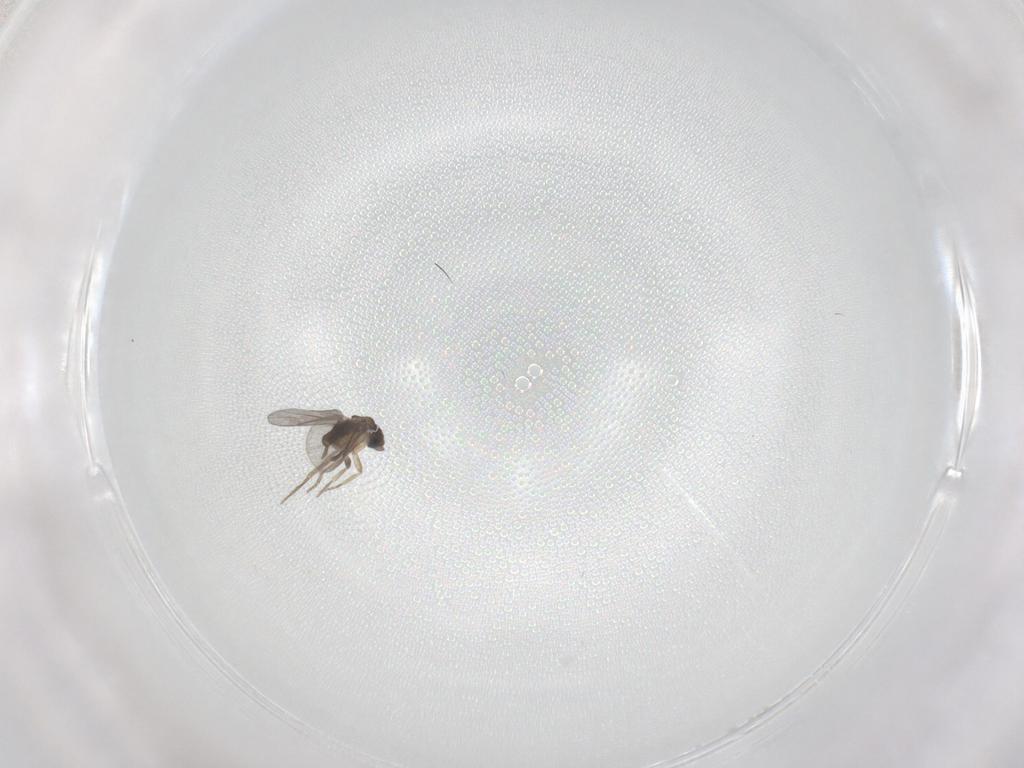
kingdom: Animalia
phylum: Arthropoda
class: Insecta
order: Diptera
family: Ceratopogonidae
